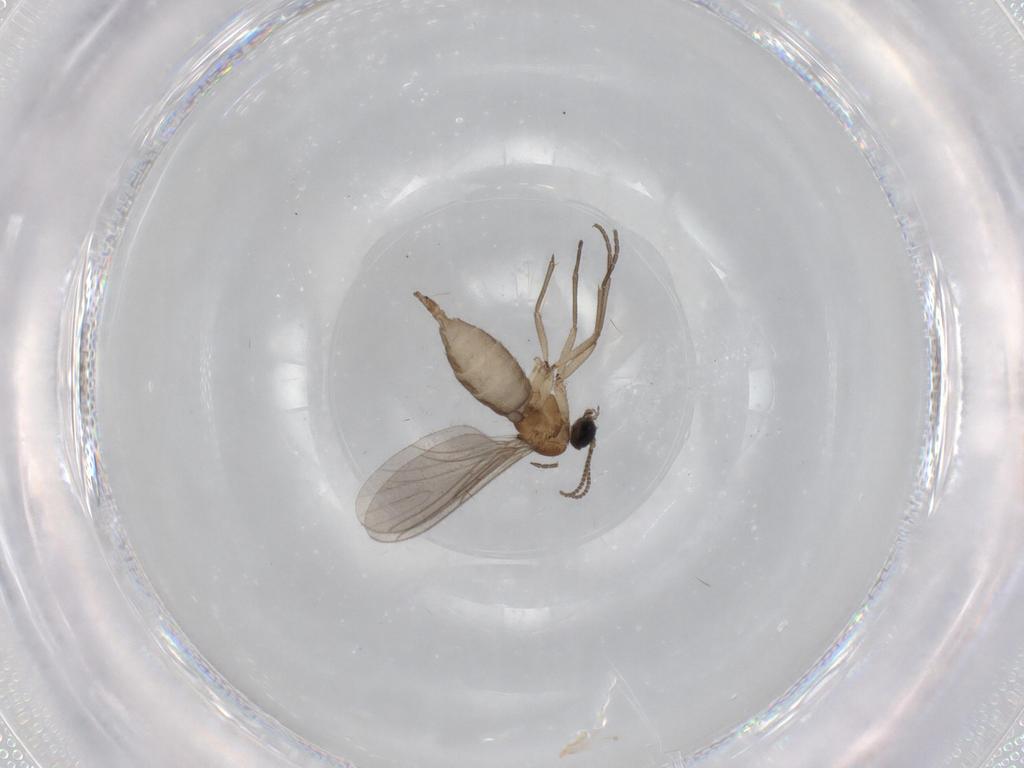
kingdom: Animalia
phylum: Arthropoda
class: Insecta
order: Diptera
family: Sciaridae
